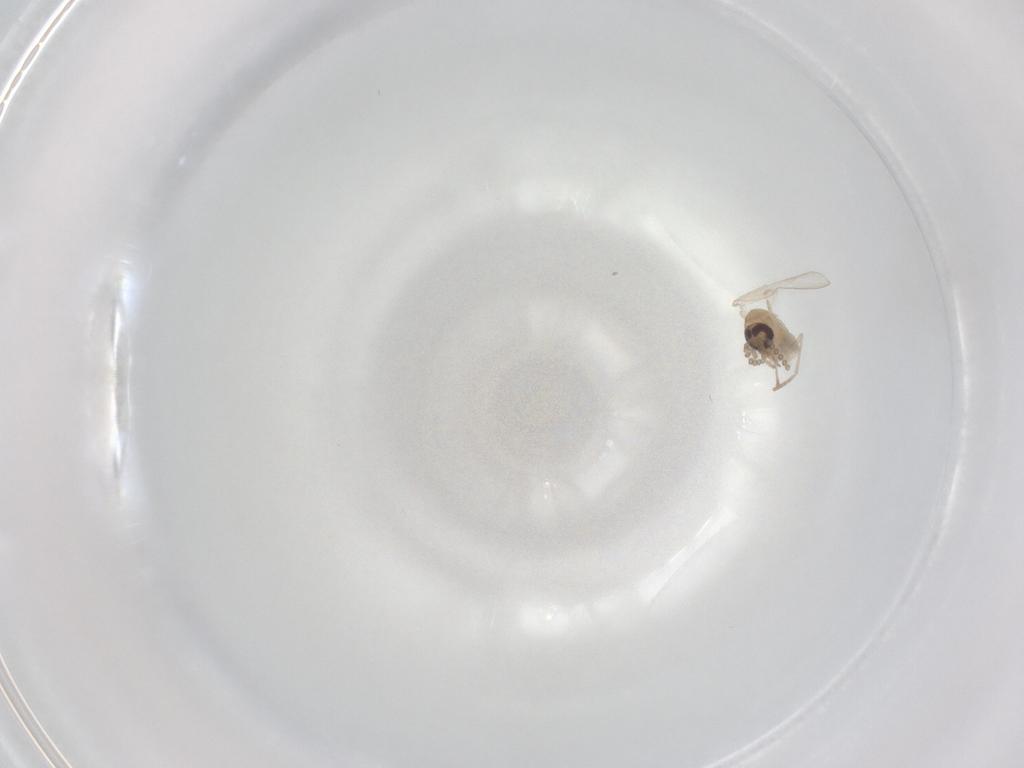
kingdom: Animalia
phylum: Arthropoda
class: Insecta
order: Diptera
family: Psychodidae
